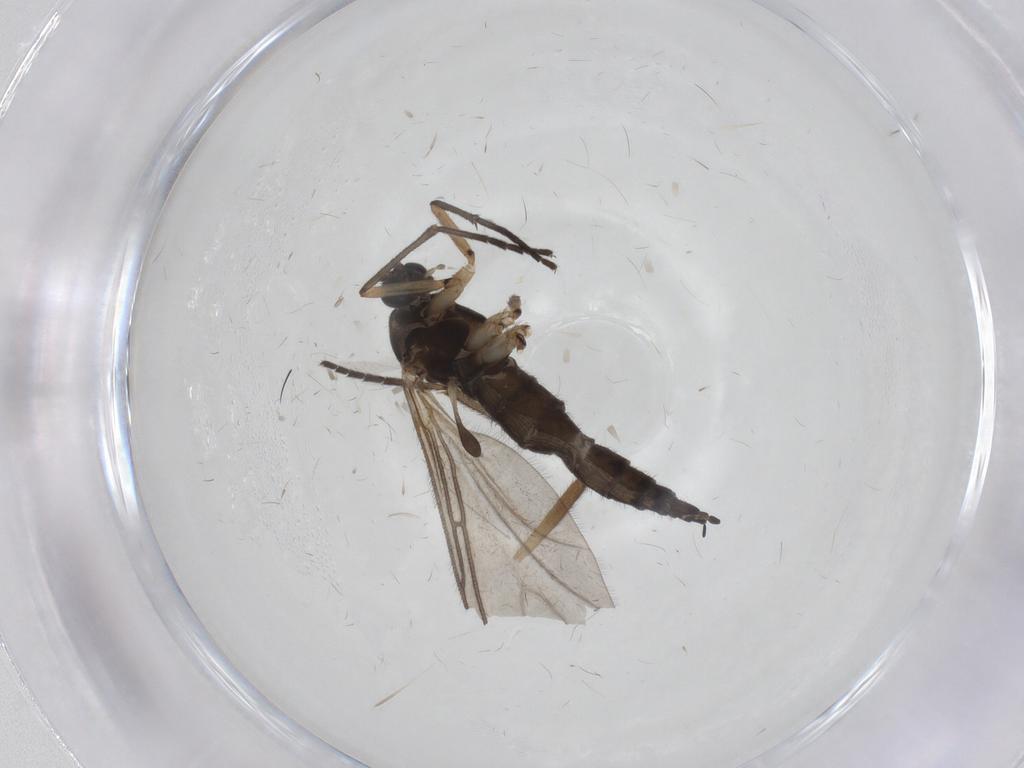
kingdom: Animalia
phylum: Arthropoda
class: Insecta
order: Diptera
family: Sciaridae
